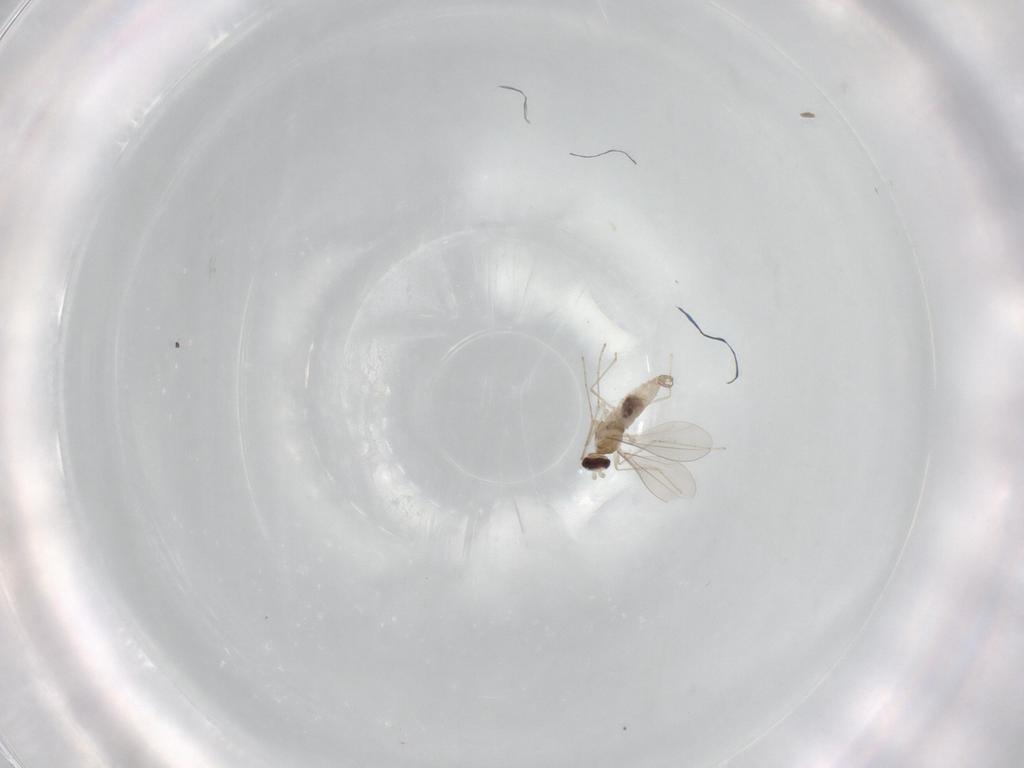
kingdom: Animalia
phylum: Arthropoda
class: Insecta
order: Diptera
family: Cecidomyiidae
